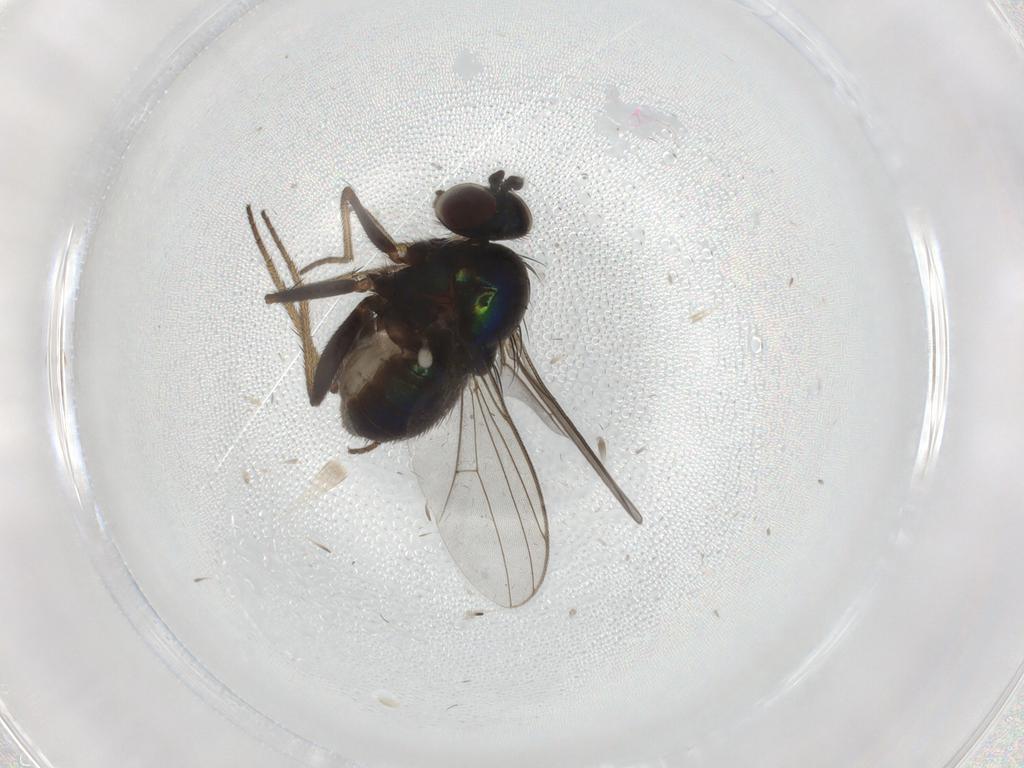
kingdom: Animalia
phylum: Arthropoda
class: Insecta
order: Diptera
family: Dolichopodidae
